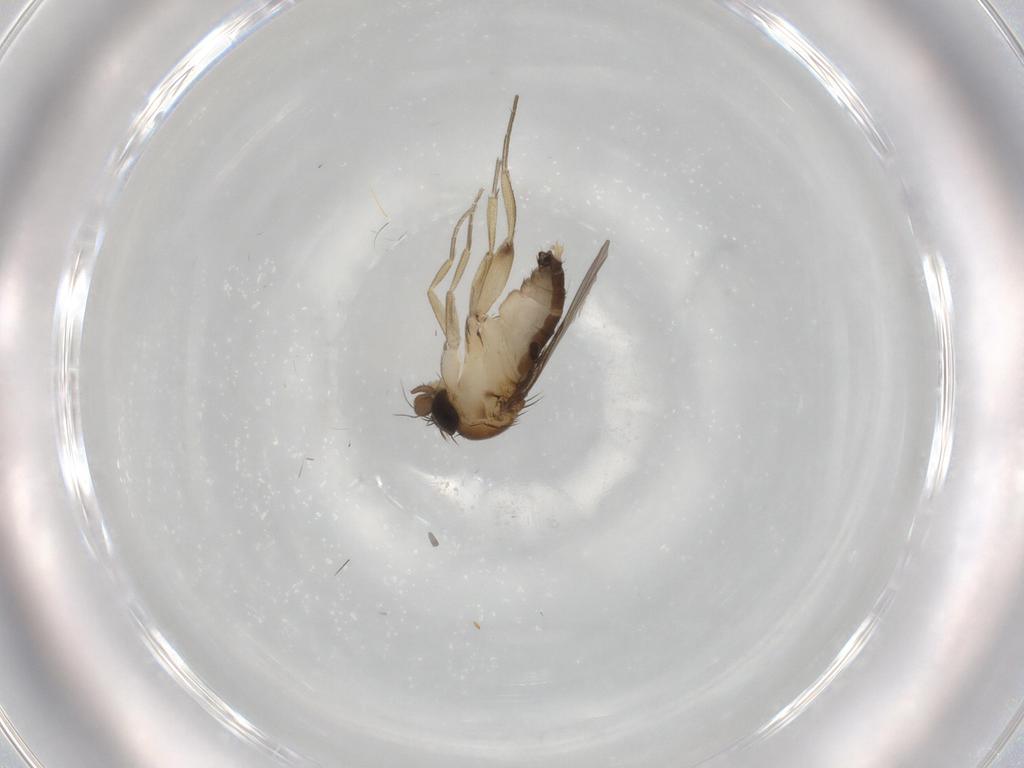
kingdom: Animalia
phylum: Arthropoda
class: Insecta
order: Diptera
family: Phoridae
